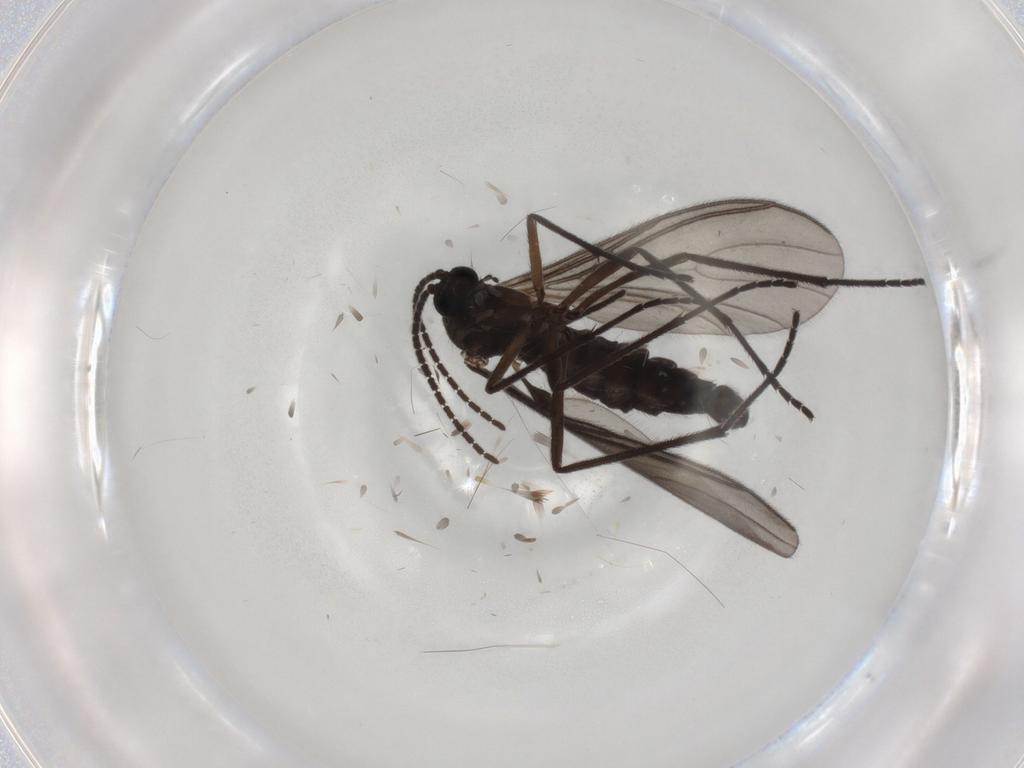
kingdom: Animalia
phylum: Arthropoda
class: Insecta
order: Diptera
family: Sciaridae
